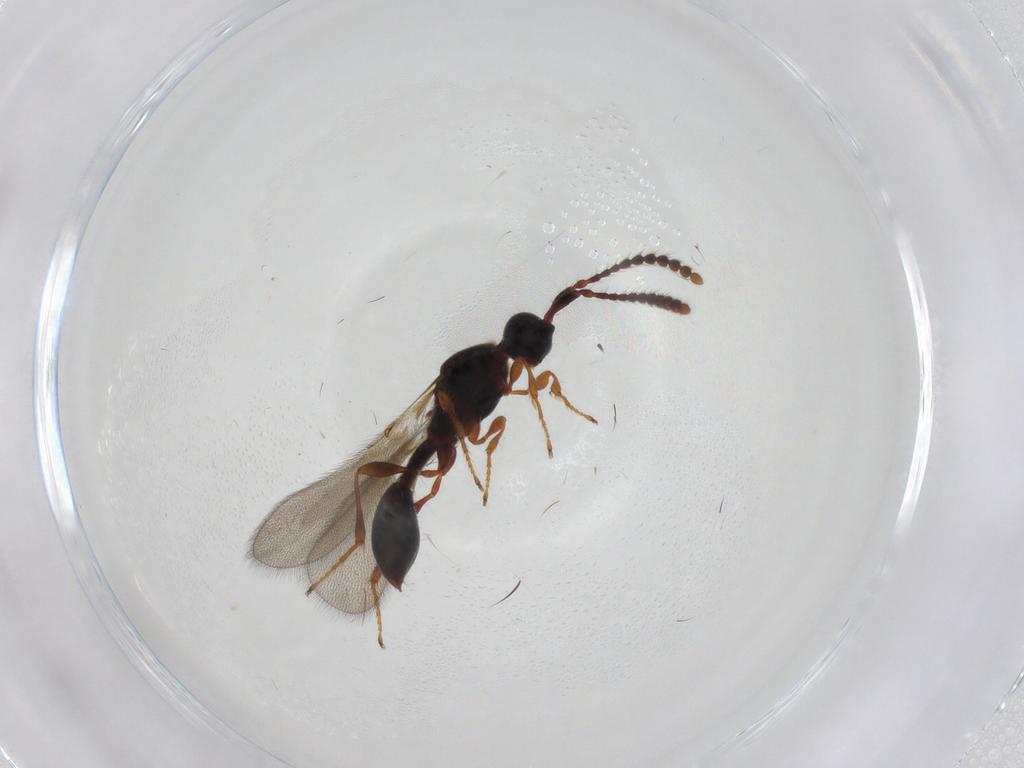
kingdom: Animalia
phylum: Arthropoda
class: Insecta
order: Hymenoptera
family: Diapriidae
